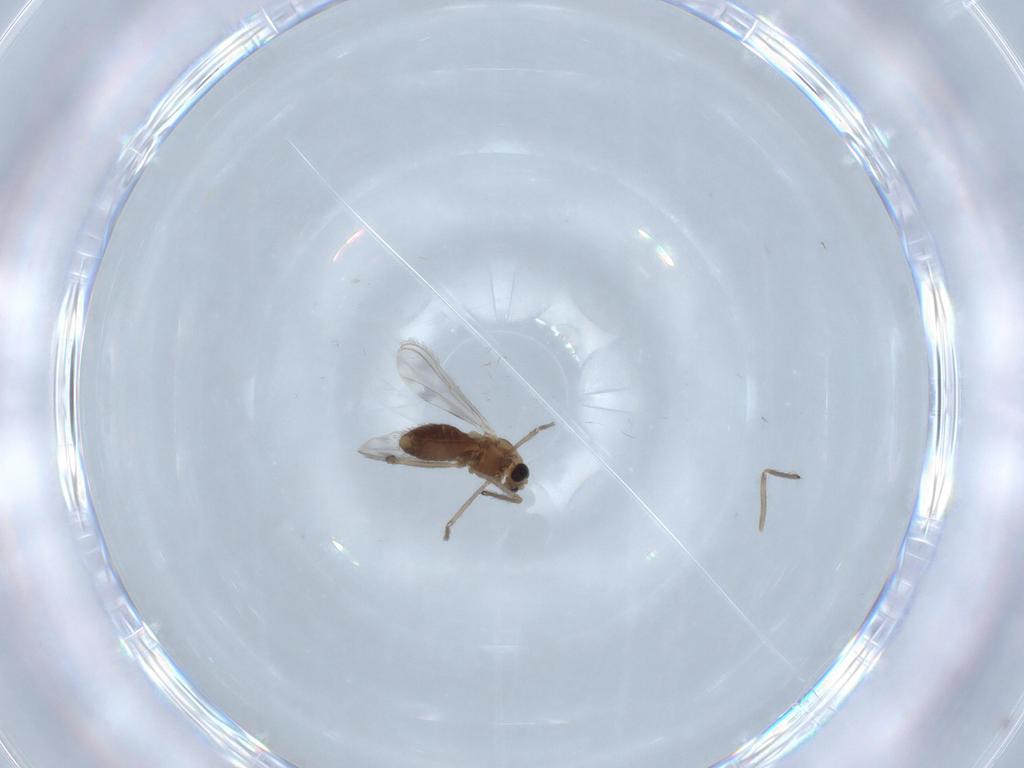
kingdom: Animalia
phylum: Arthropoda
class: Insecta
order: Diptera
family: Chironomidae
